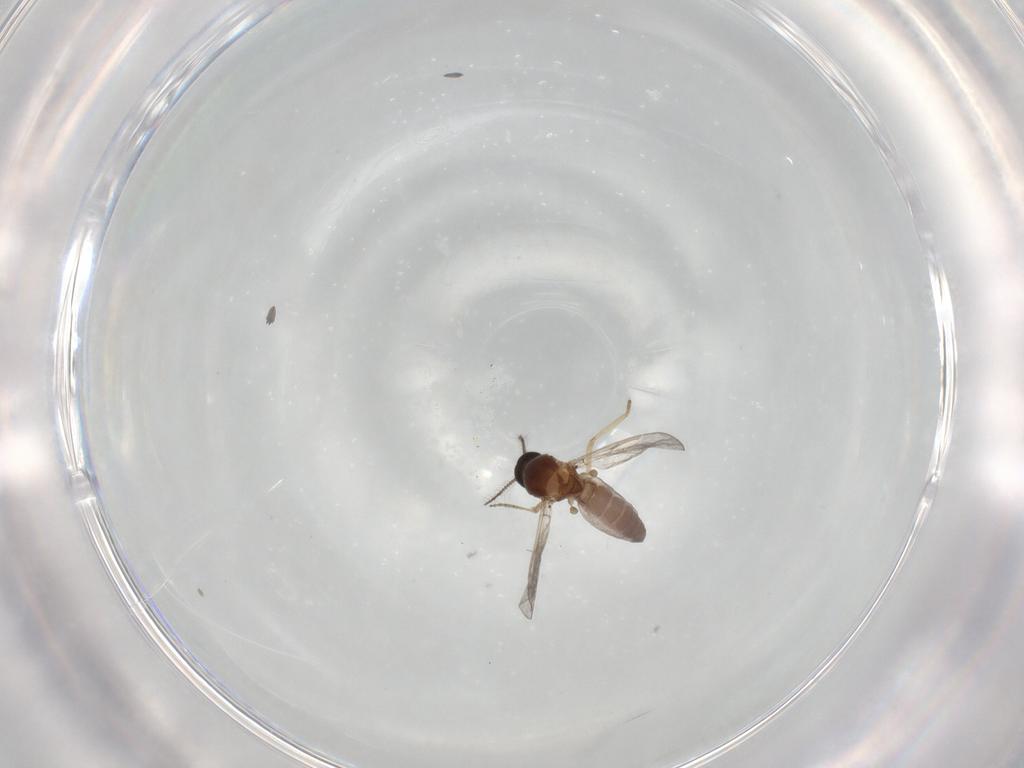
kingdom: Animalia
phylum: Arthropoda
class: Insecta
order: Diptera
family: Ceratopogonidae
